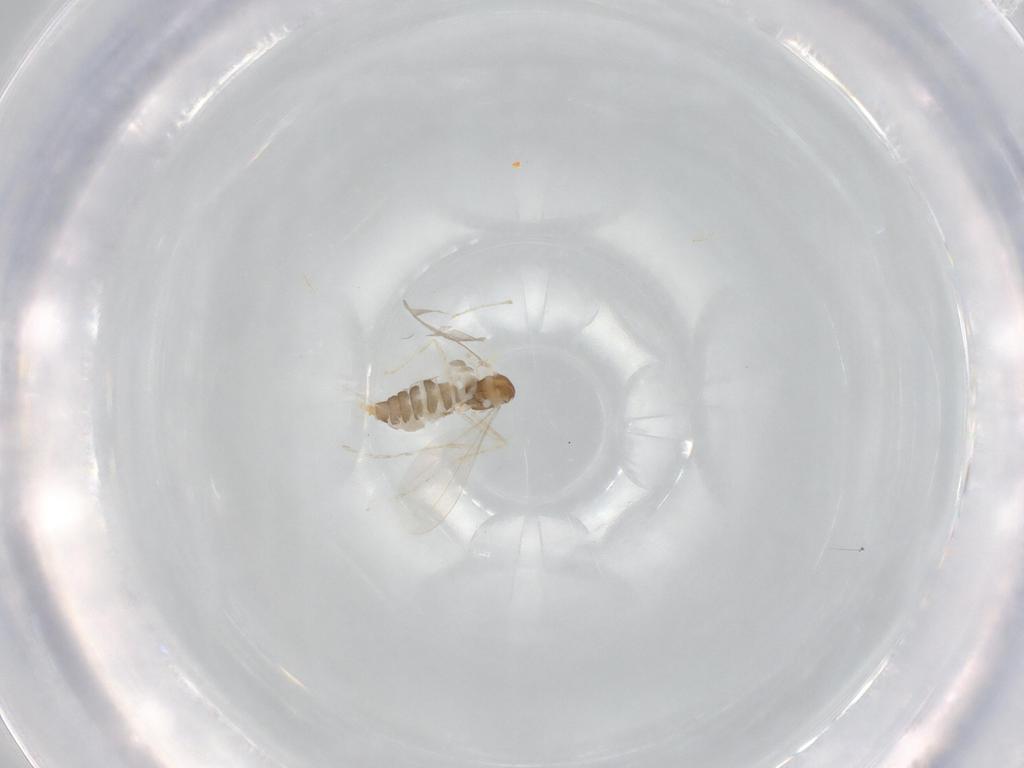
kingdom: Animalia
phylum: Arthropoda
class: Insecta
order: Diptera
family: Cecidomyiidae
